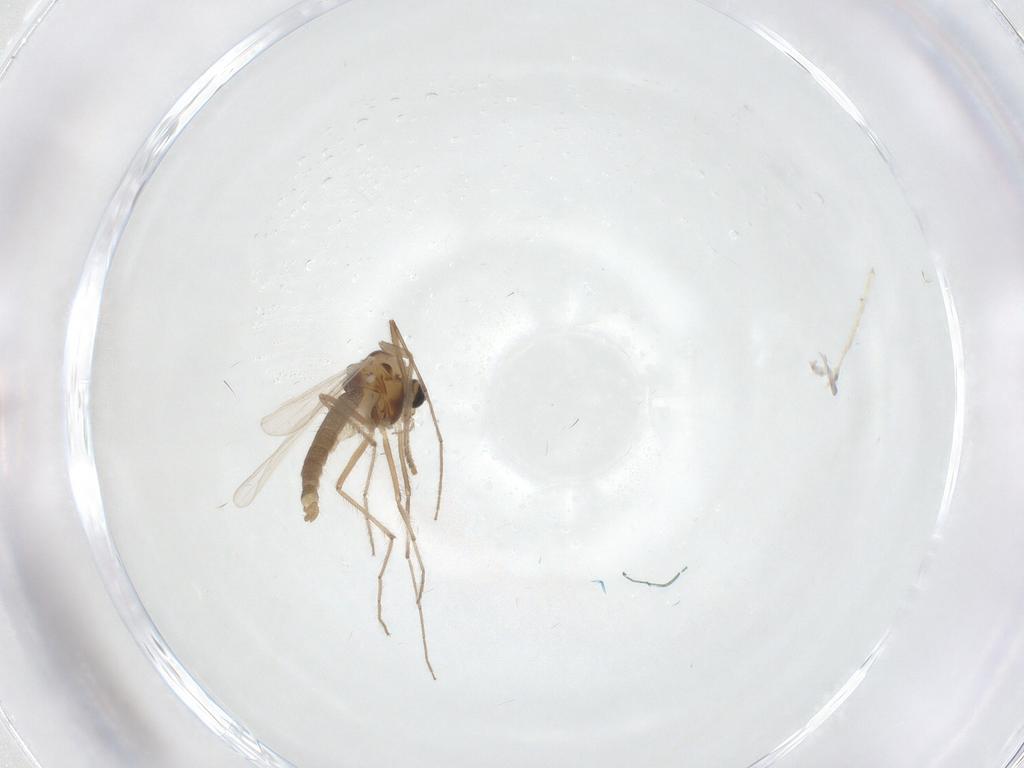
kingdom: Animalia
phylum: Arthropoda
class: Insecta
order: Diptera
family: Chironomidae
